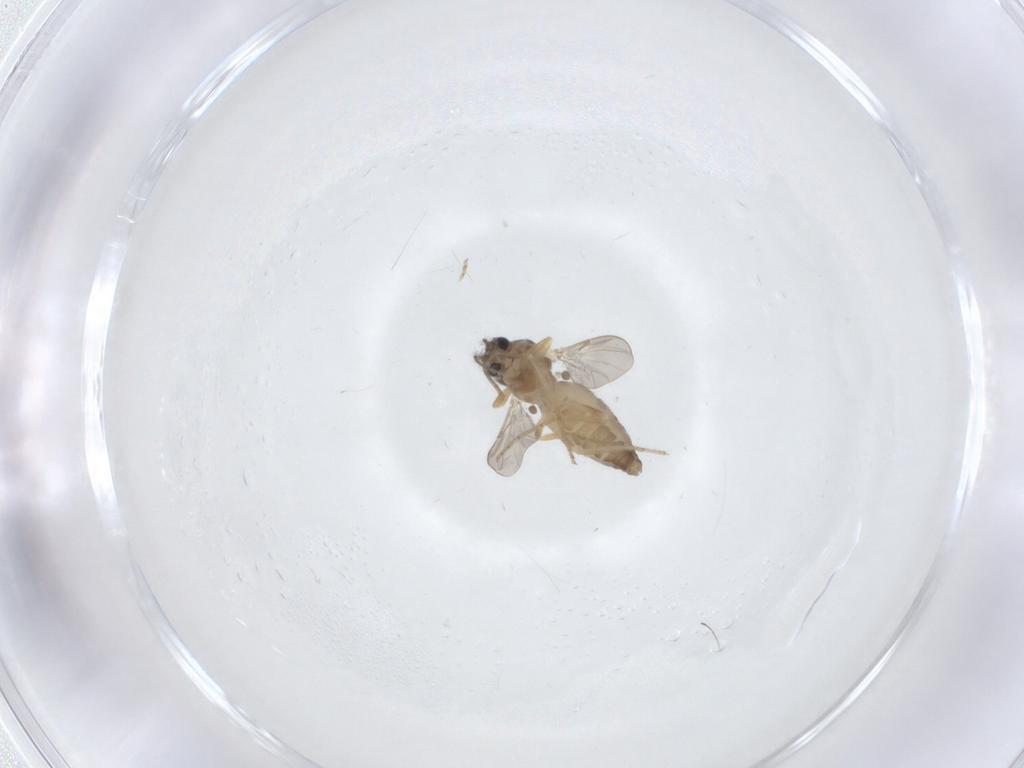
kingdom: Animalia
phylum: Arthropoda
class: Insecta
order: Diptera
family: Ceratopogonidae
